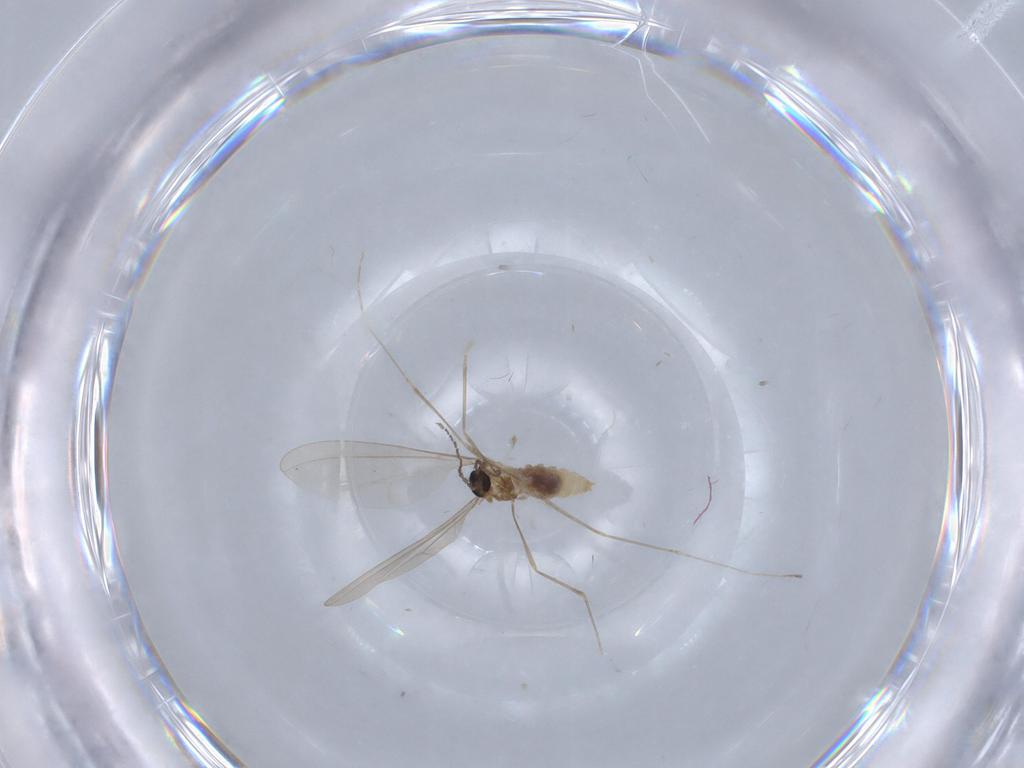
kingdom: Animalia
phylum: Arthropoda
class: Insecta
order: Diptera
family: Cecidomyiidae
